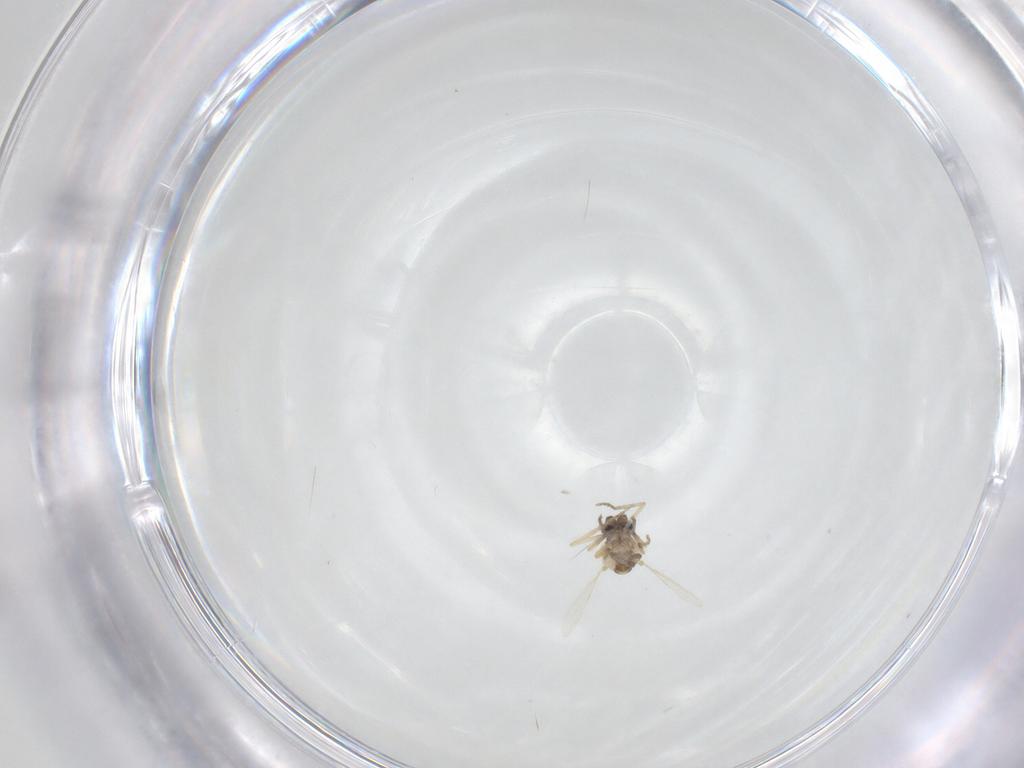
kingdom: Animalia
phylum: Arthropoda
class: Insecta
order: Diptera
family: Ceratopogonidae
